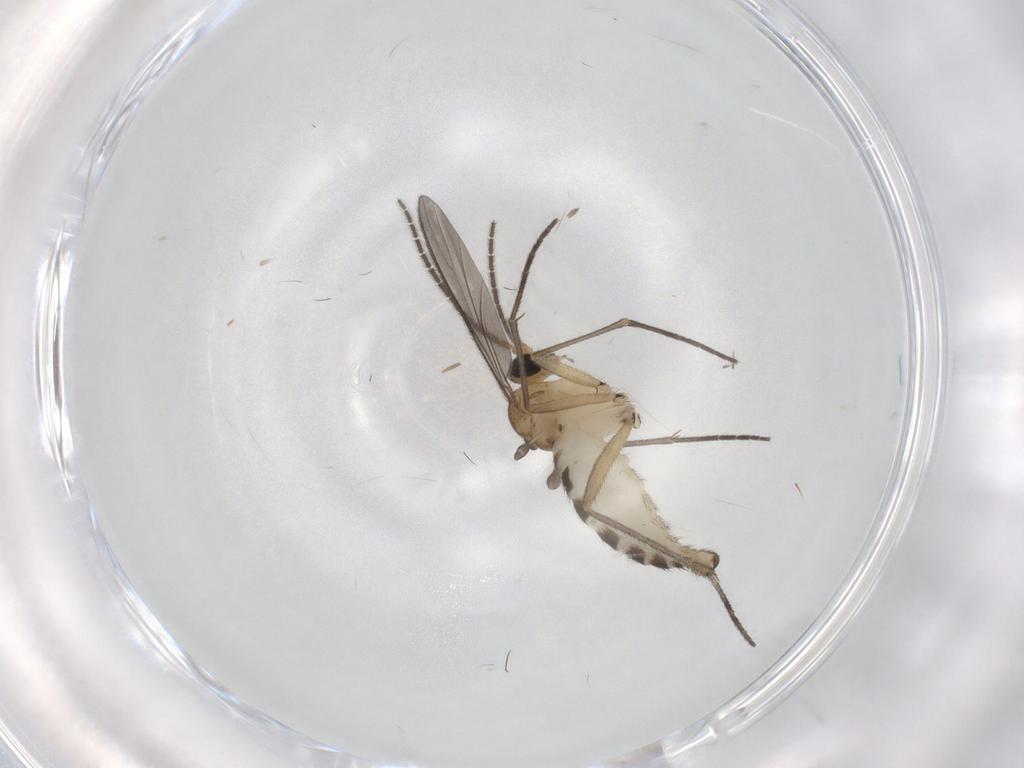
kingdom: Animalia
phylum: Arthropoda
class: Insecta
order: Diptera
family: Sciaridae
